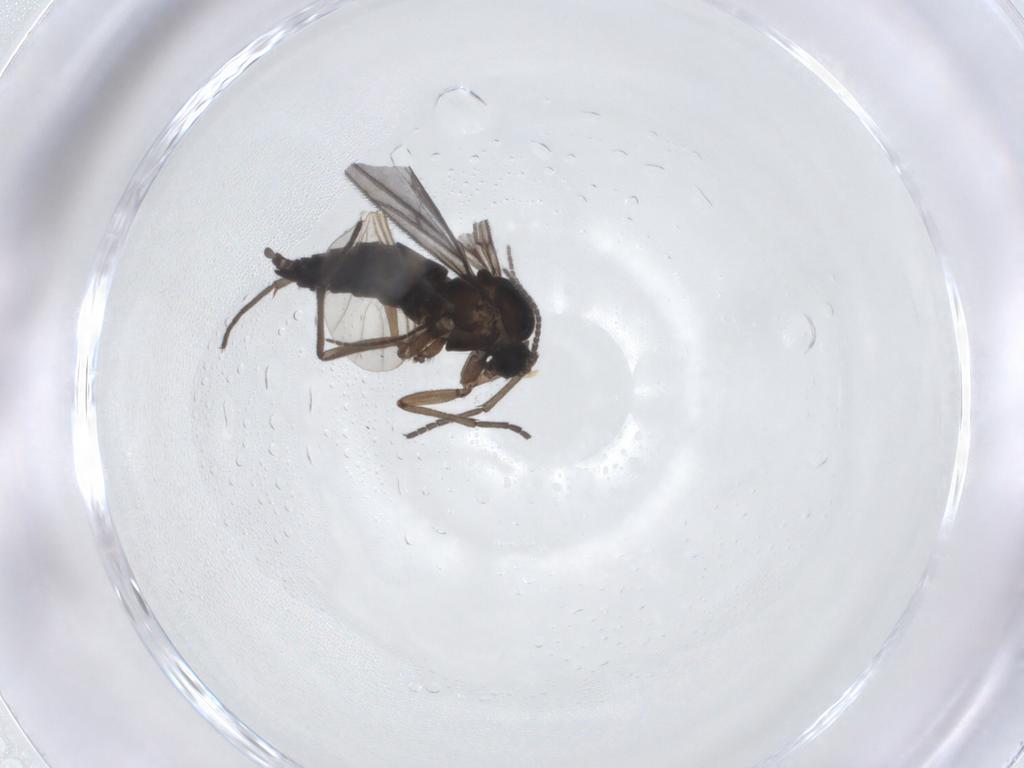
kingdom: Animalia
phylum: Arthropoda
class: Insecta
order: Diptera
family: Sciaridae
